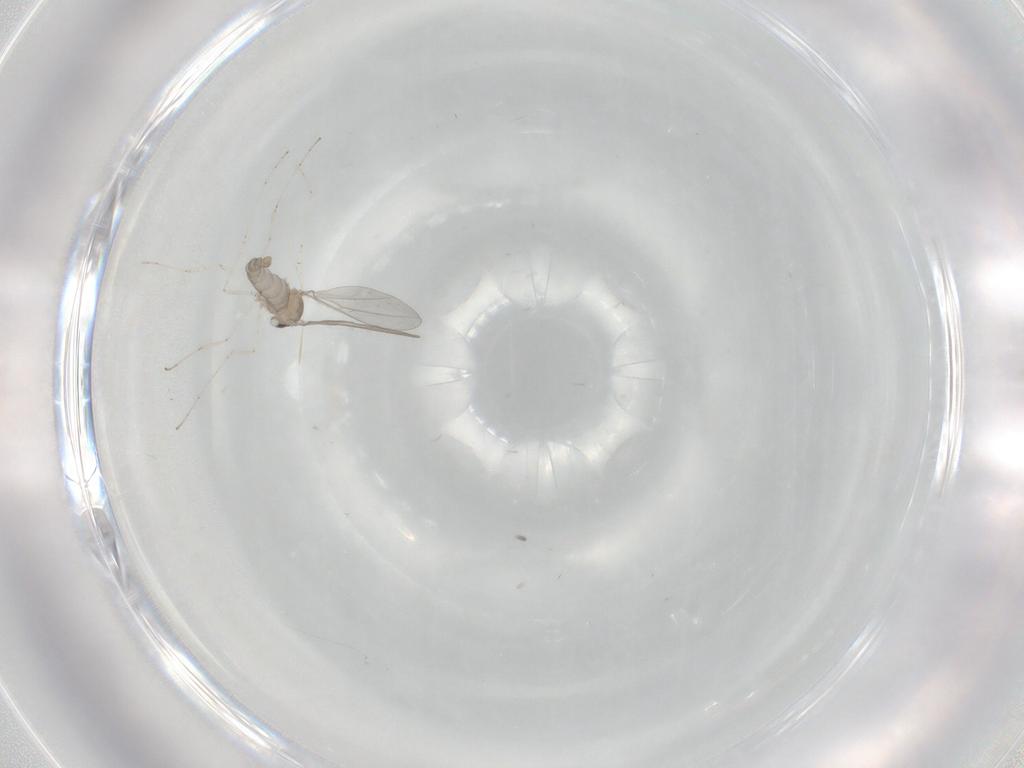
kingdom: Animalia
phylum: Arthropoda
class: Insecta
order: Diptera
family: Cecidomyiidae
